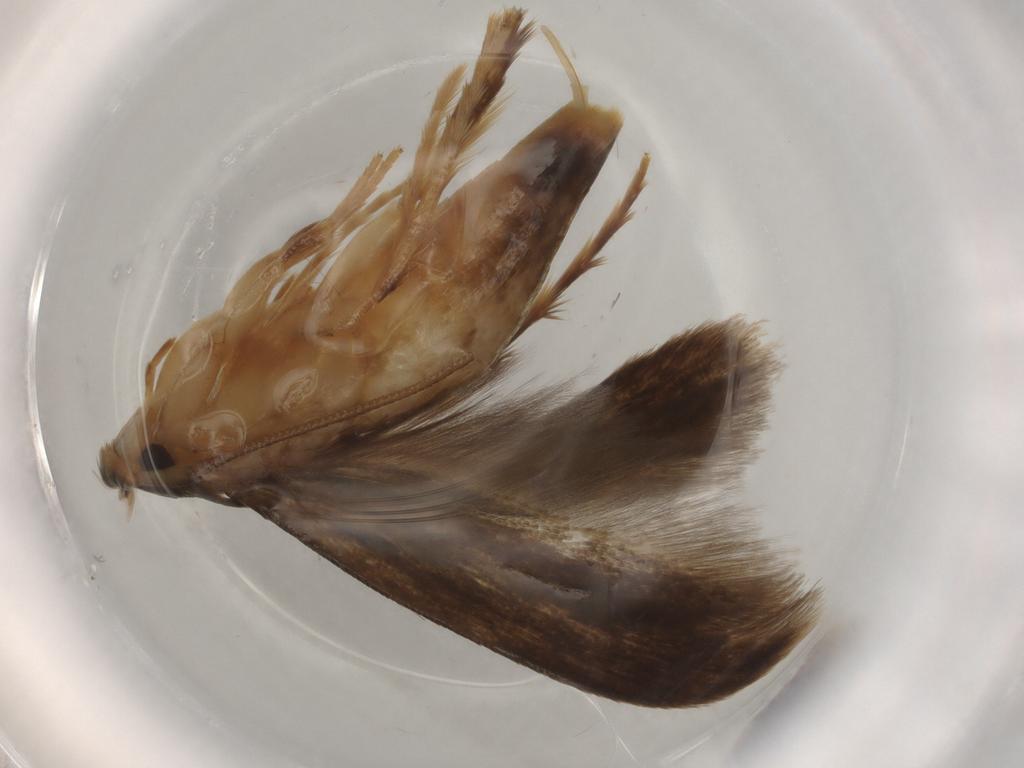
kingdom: Animalia
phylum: Arthropoda
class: Insecta
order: Lepidoptera
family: Tineidae
